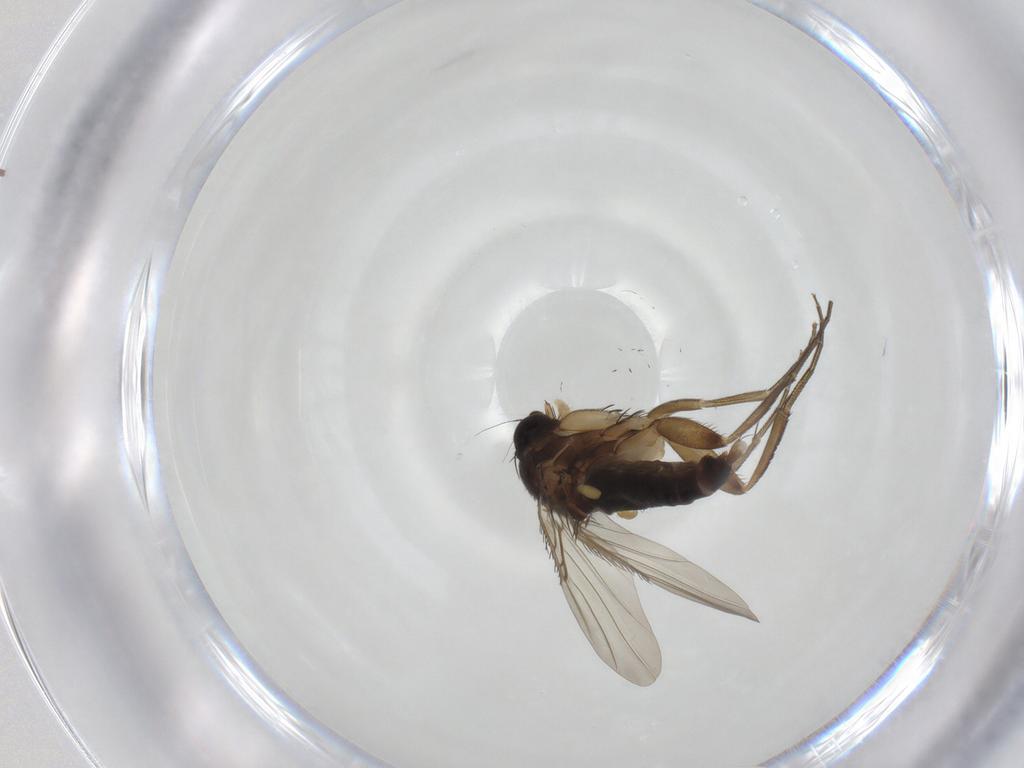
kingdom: Animalia
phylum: Arthropoda
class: Insecta
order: Diptera
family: Phoridae
